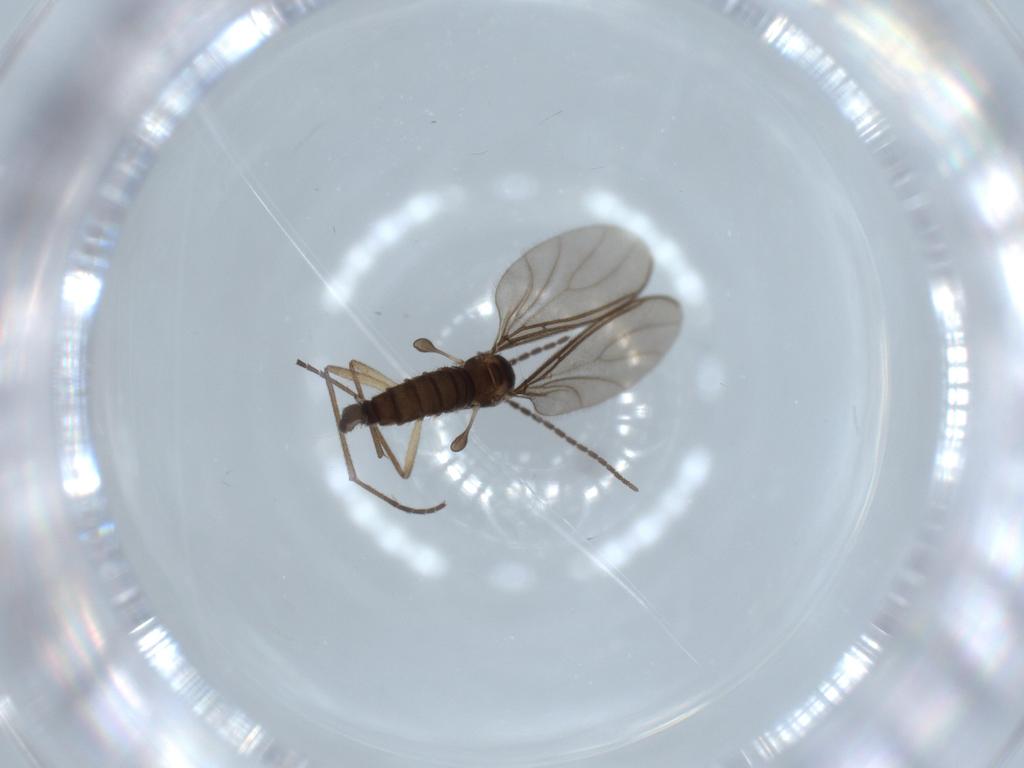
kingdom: Animalia
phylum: Arthropoda
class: Insecta
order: Diptera
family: Sciaridae
